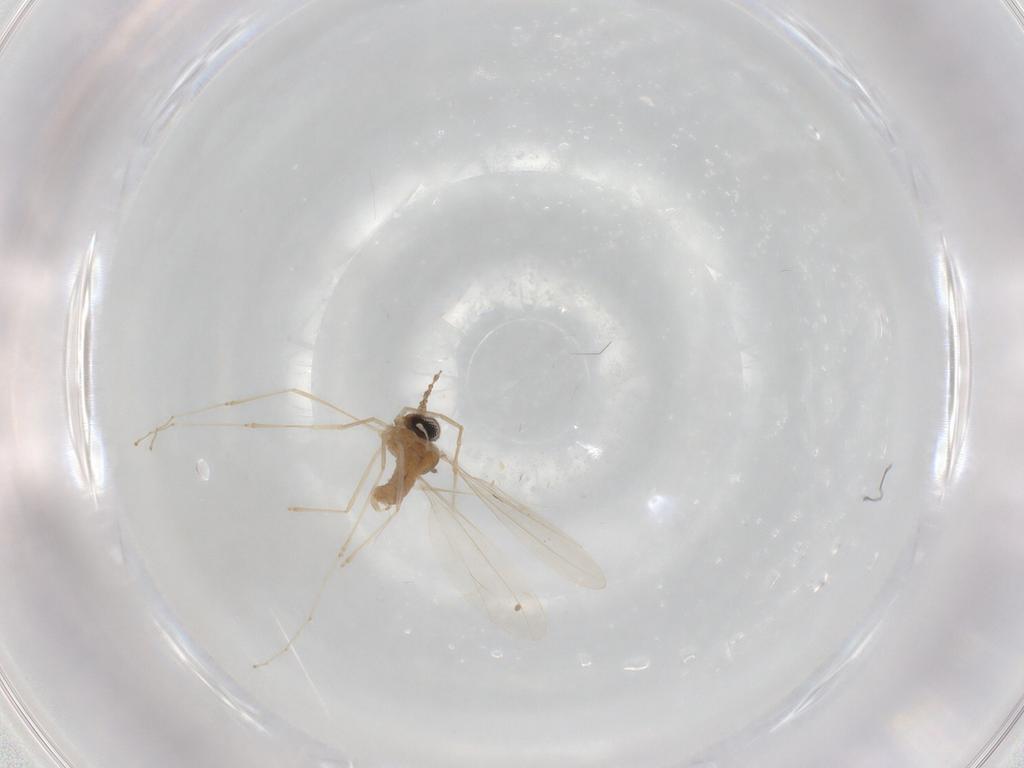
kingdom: Animalia
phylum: Arthropoda
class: Insecta
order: Diptera
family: Cecidomyiidae
